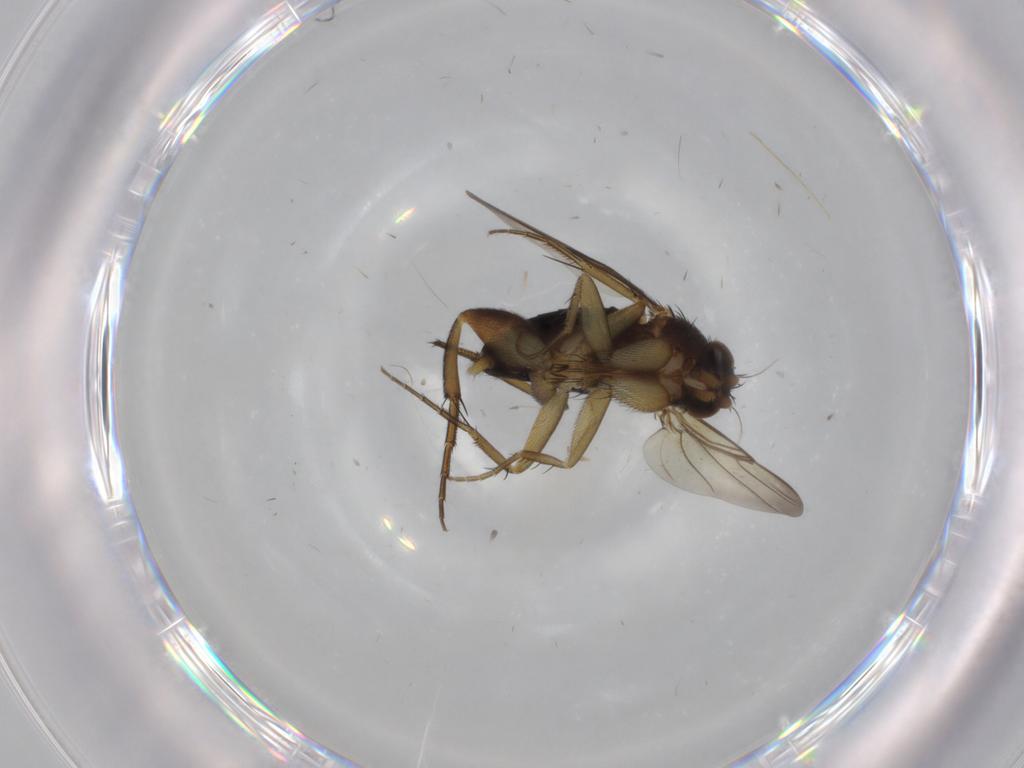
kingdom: Animalia
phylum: Arthropoda
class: Insecta
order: Diptera
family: Phoridae
